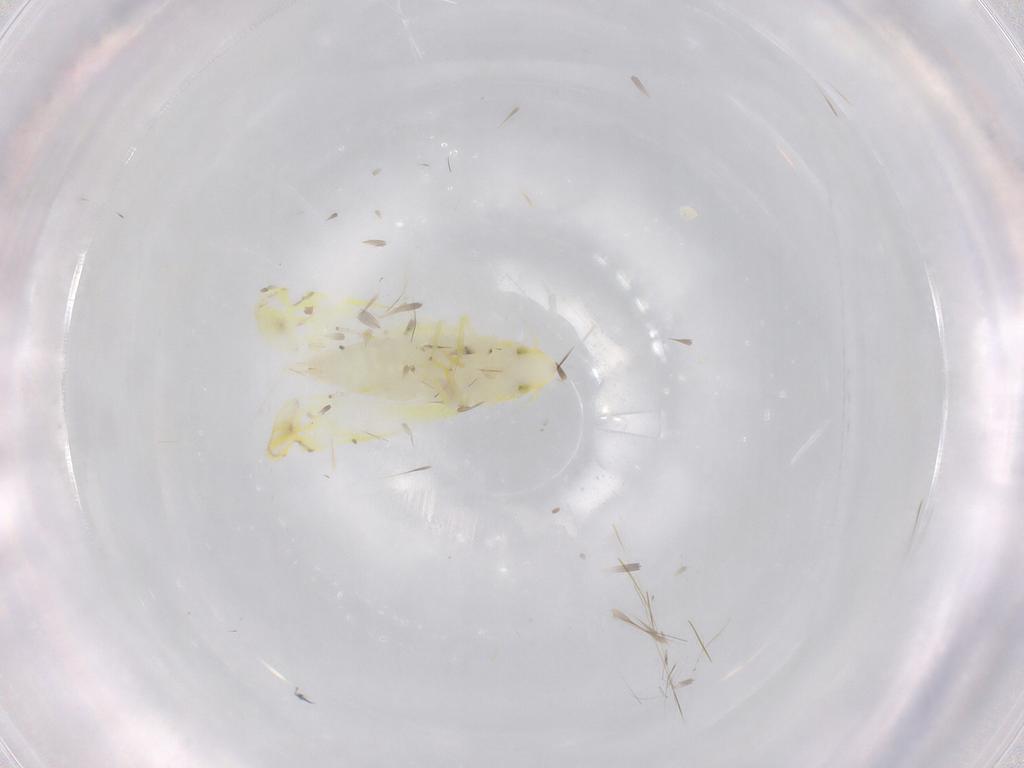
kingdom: Animalia
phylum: Arthropoda
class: Insecta
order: Hemiptera
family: Cicadellidae
